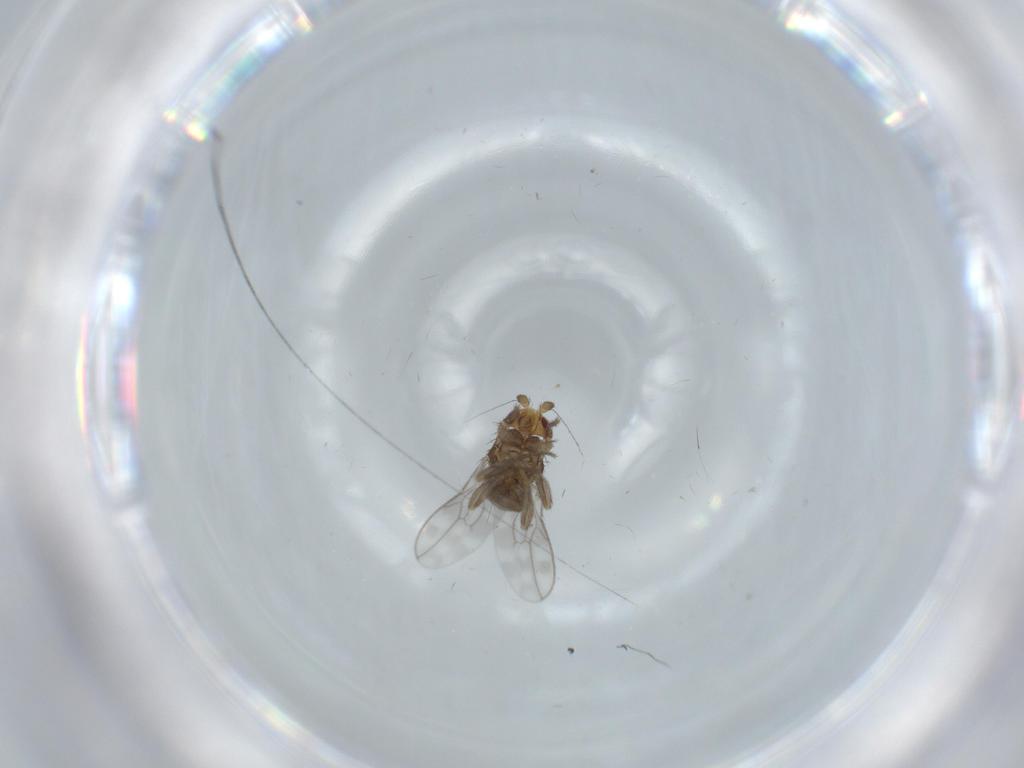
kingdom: Animalia
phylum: Arthropoda
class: Insecta
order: Diptera
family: Sphaeroceridae
